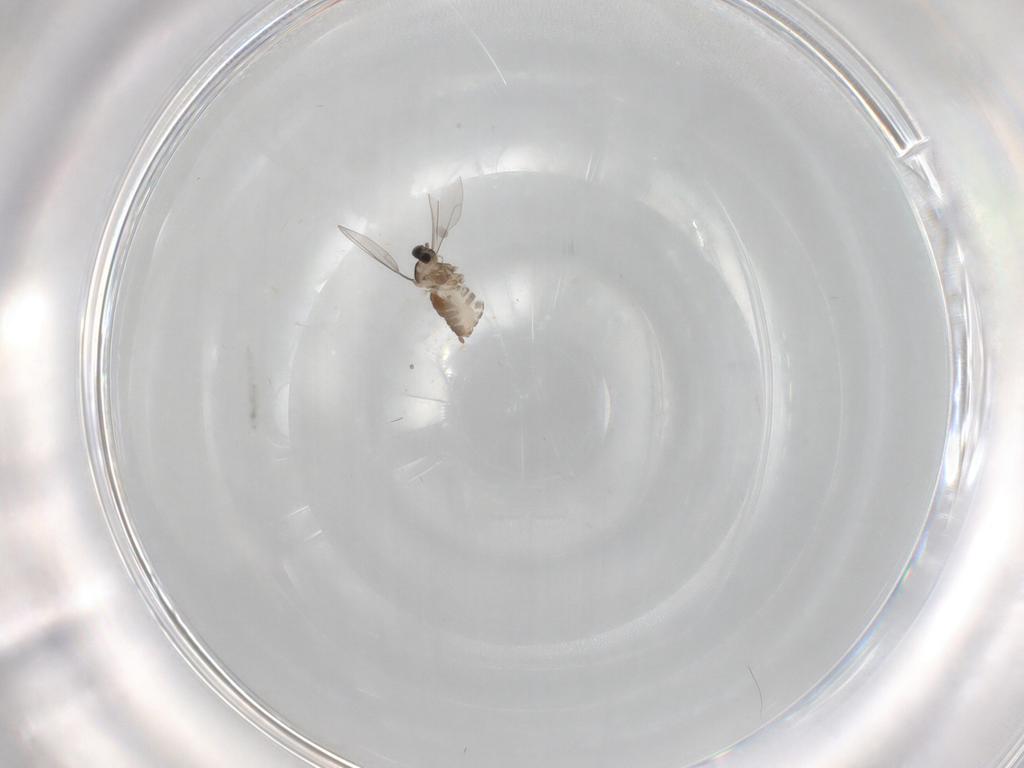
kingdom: Animalia
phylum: Arthropoda
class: Insecta
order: Diptera
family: Cecidomyiidae
